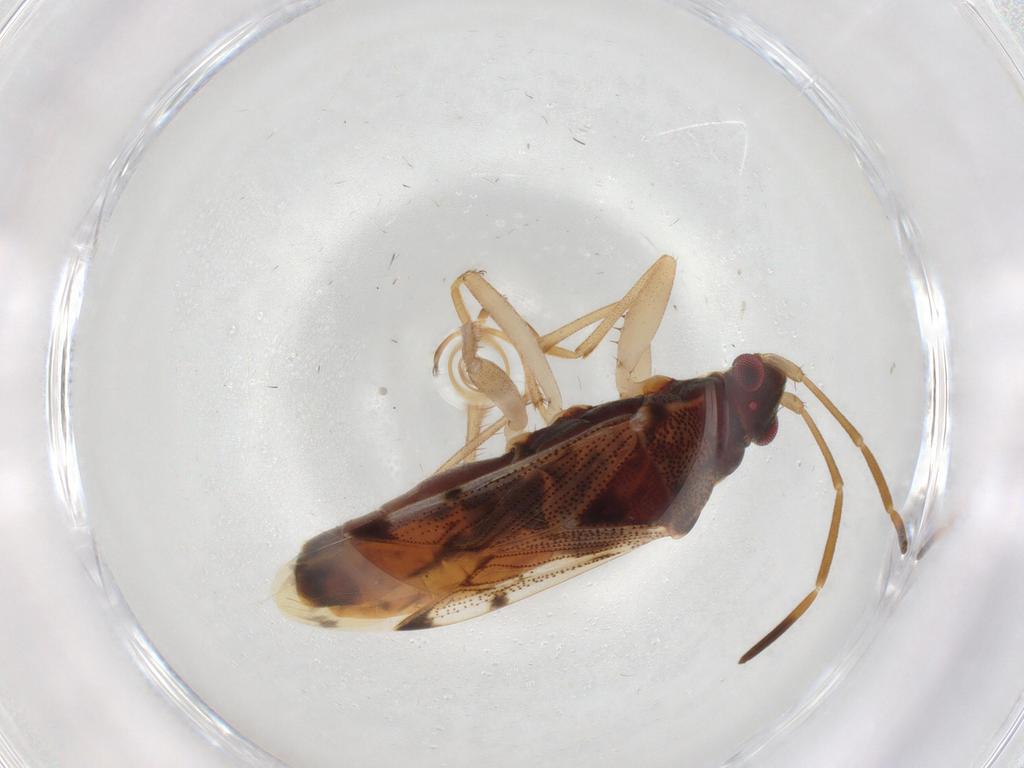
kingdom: Animalia
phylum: Arthropoda
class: Insecta
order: Hemiptera
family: Rhyparochromidae
